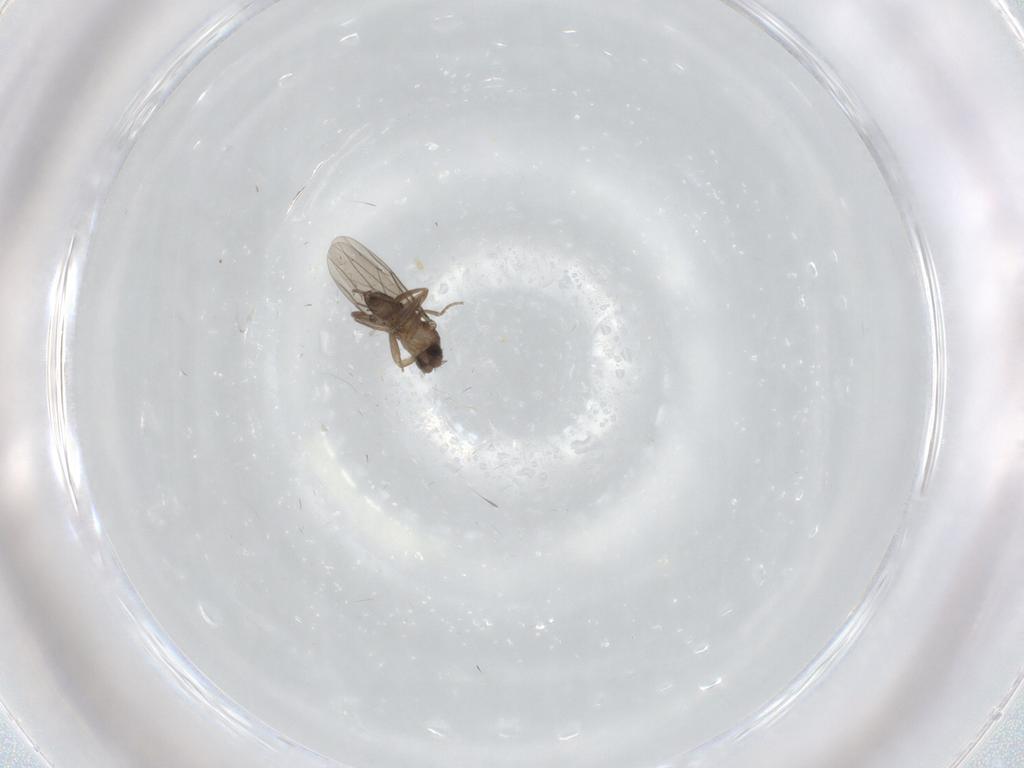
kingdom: Animalia
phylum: Arthropoda
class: Insecta
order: Diptera
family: Phoridae
